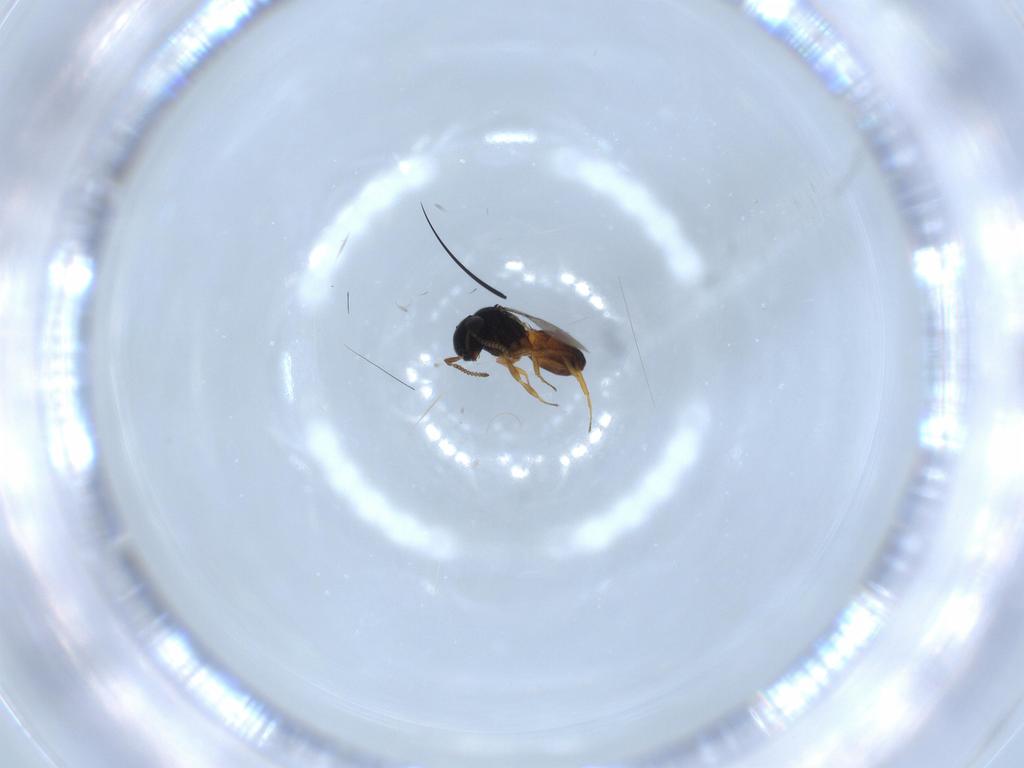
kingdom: Animalia
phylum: Arthropoda
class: Insecta
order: Hymenoptera
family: Scelionidae
